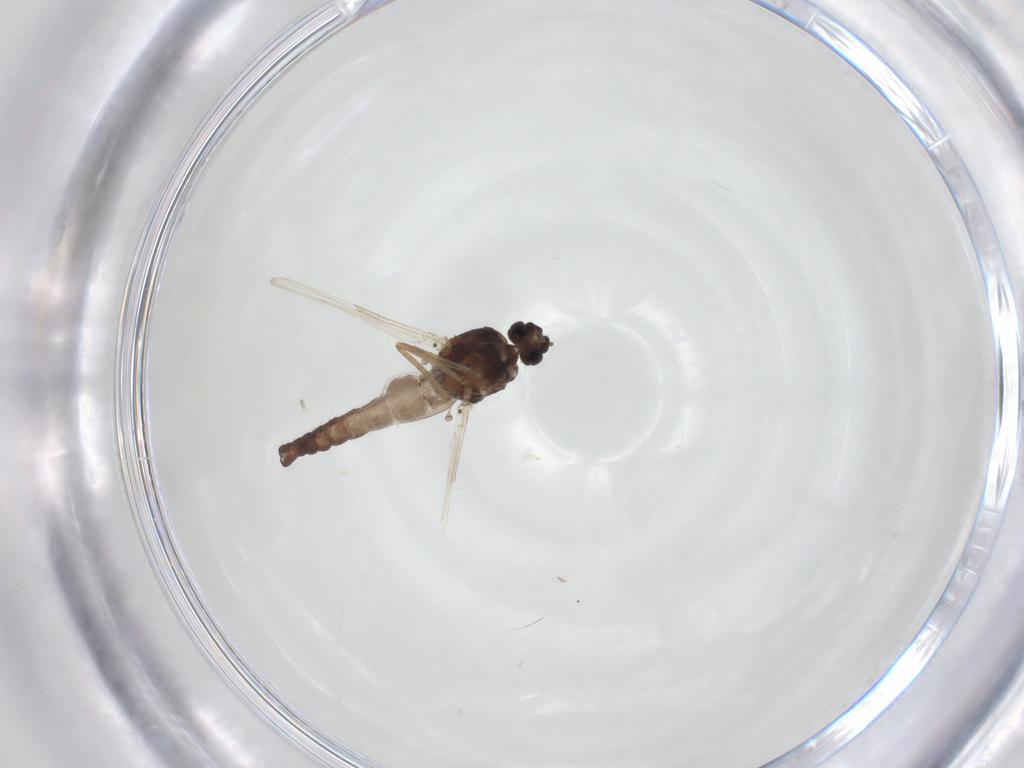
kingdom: Animalia
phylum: Arthropoda
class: Insecta
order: Diptera
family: Ceratopogonidae
